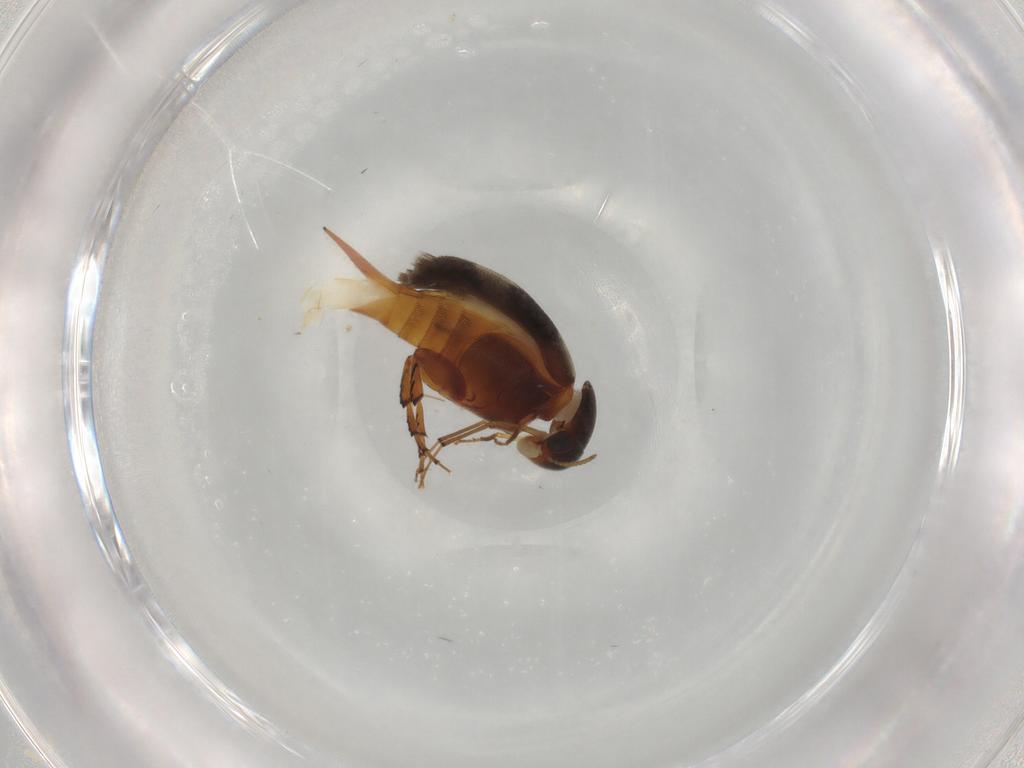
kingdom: Animalia
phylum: Arthropoda
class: Insecta
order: Coleoptera
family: Mordellidae
